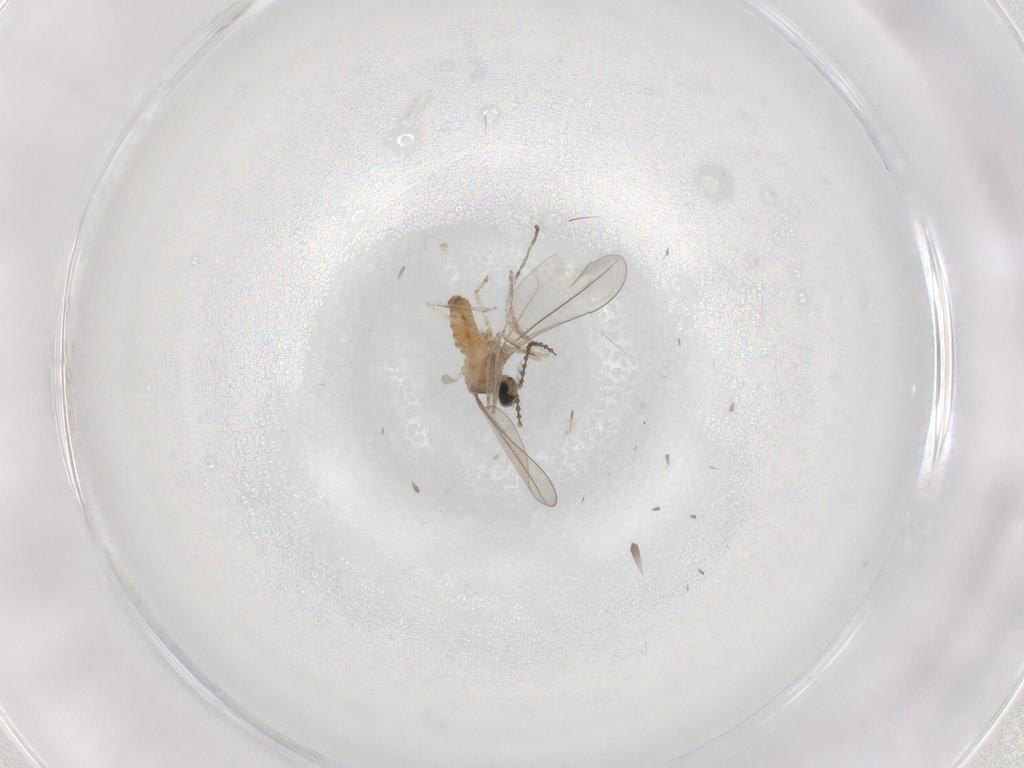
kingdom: Animalia
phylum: Arthropoda
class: Insecta
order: Diptera
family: Cecidomyiidae
